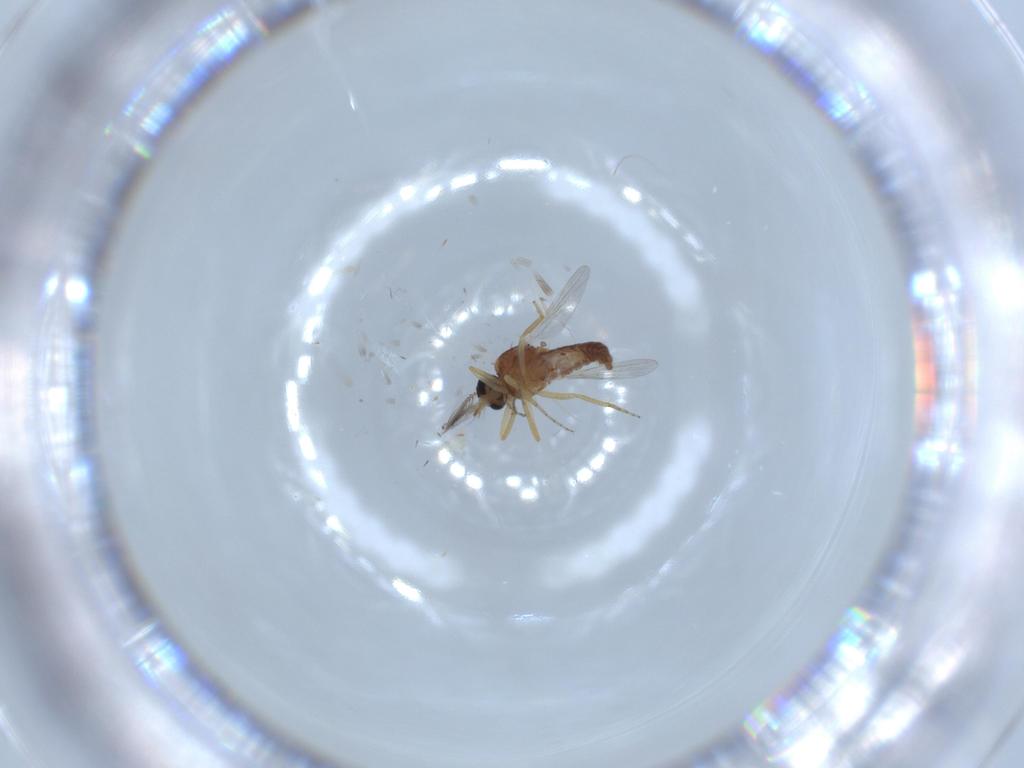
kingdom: Animalia
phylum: Arthropoda
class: Insecta
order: Diptera
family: Ceratopogonidae
